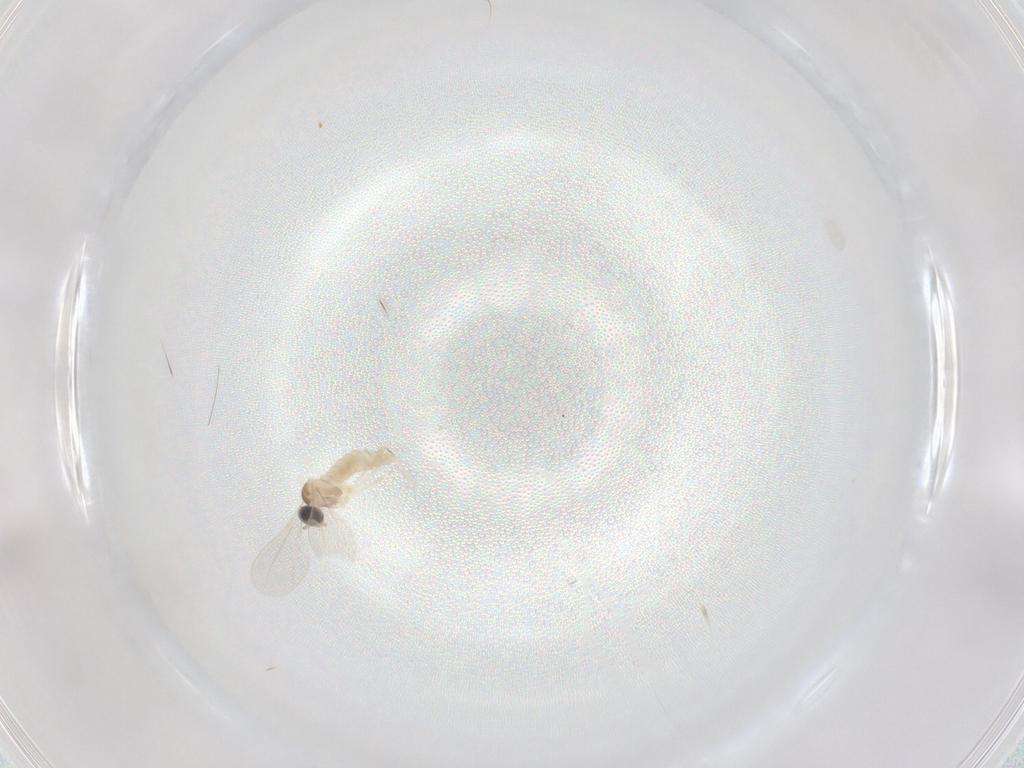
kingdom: Animalia
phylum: Arthropoda
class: Insecta
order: Diptera
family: Cecidomyiidae
